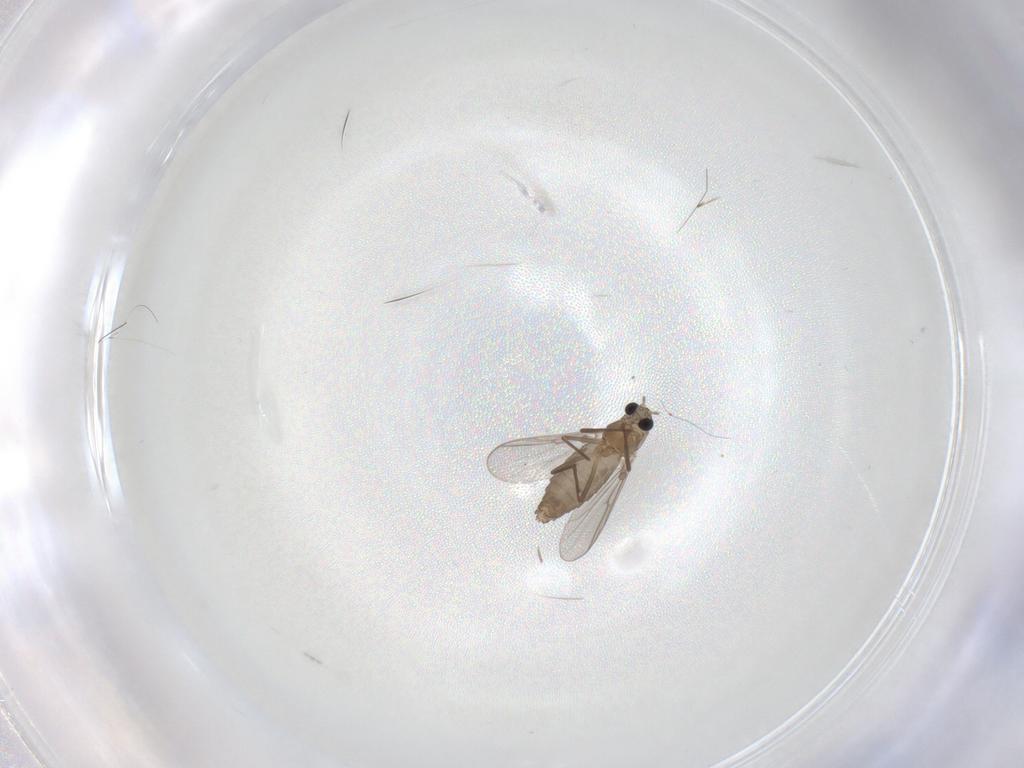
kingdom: Animalia
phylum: Arthropoda
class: Insecta
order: Diptera
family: Chironomidae
